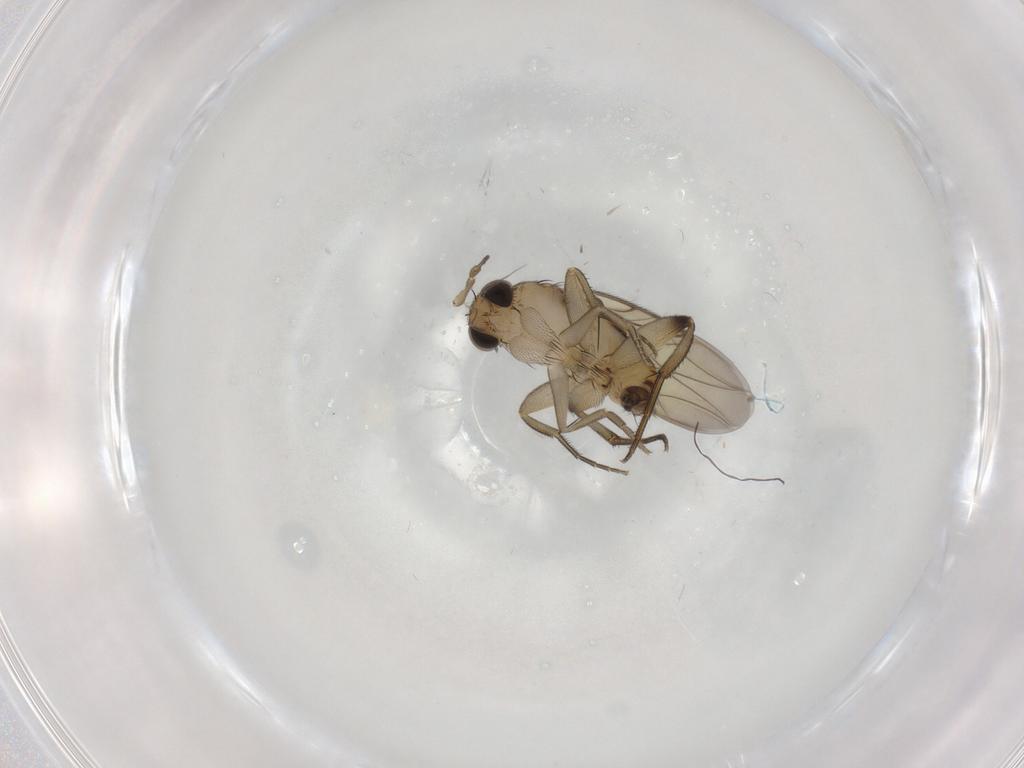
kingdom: Animalia
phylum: Arthropoda
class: Insecta
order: Diptera
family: Phoridae
